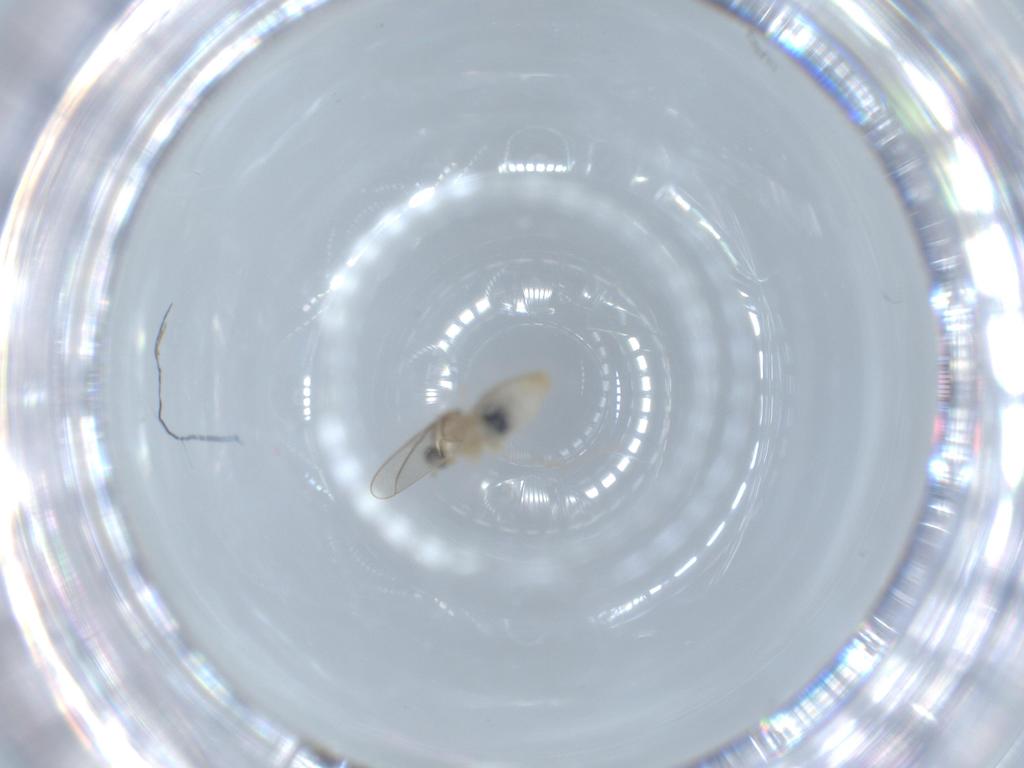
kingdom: Animalia
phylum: Arthropoda
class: Insecta
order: Diptera
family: Cecidomyiidae
